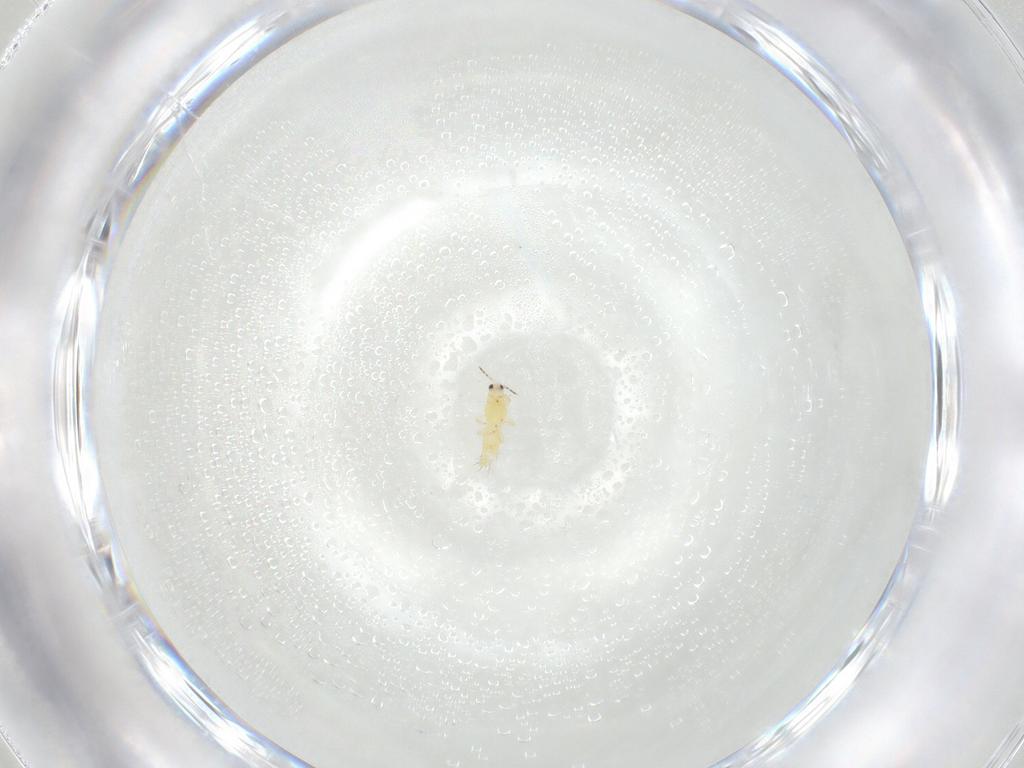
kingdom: Animalia
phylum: Arthropoda
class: Insecta
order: Thysanoptera
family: Thripidae
